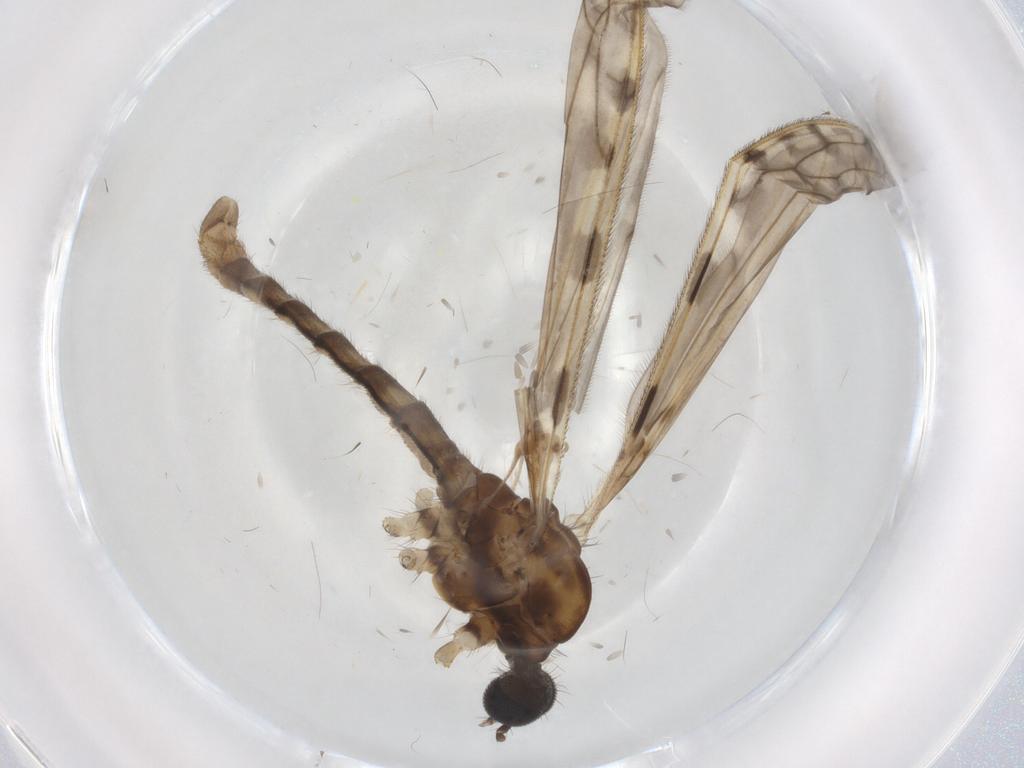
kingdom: Animalia
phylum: Arthropoda
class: Insecta
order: Diptera
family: Ceratopogonidae
